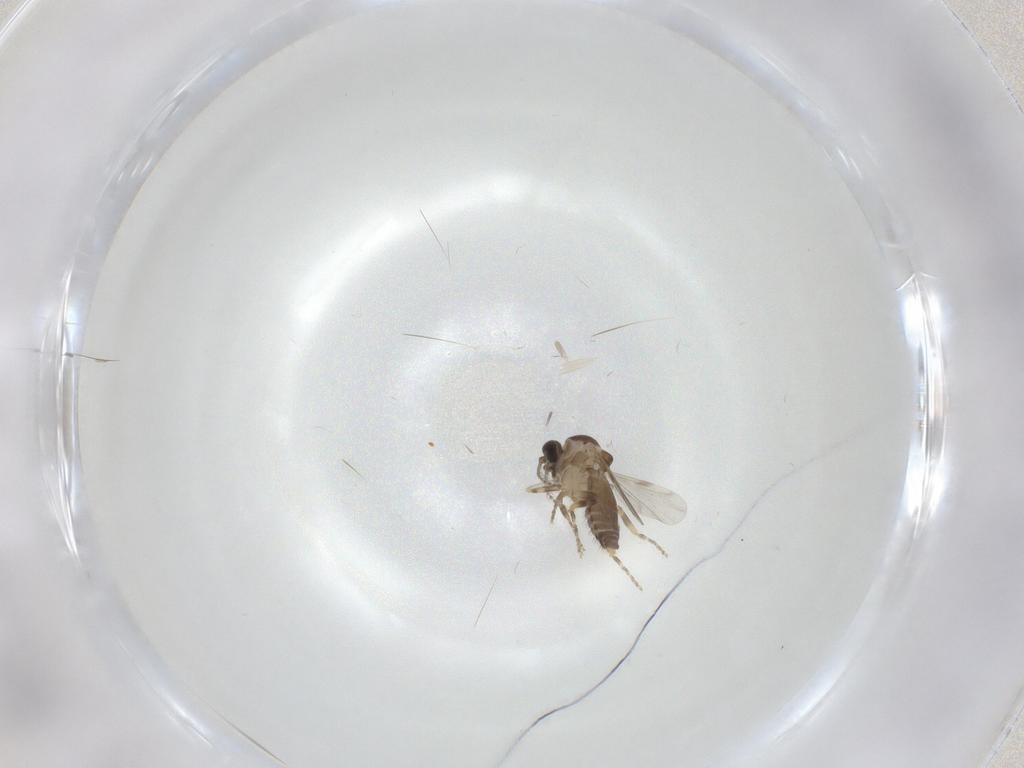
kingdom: Animalia
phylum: Arthropoda
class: Insecta
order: Diptera
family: Ceratopogonidae
